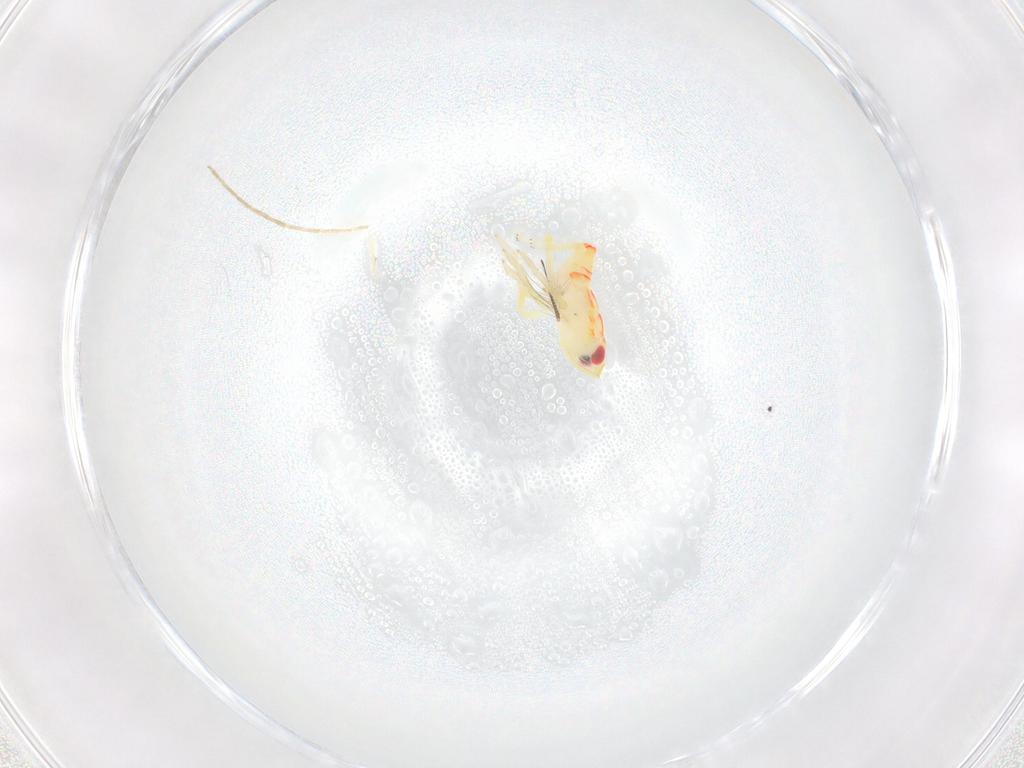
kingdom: Animalia
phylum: Arthropoda
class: Insecta
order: Hemiptera
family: Tropiduchidae
